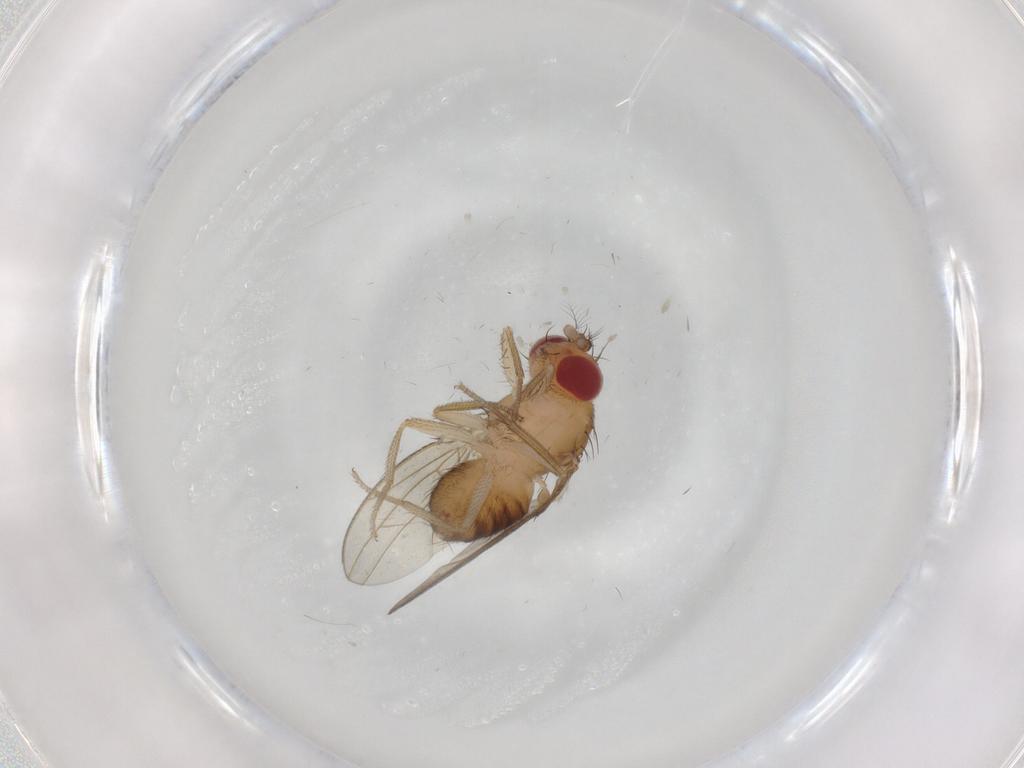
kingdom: Animalia
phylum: Arthropoda
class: Insecta
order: Diptera
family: Drosophilidae
